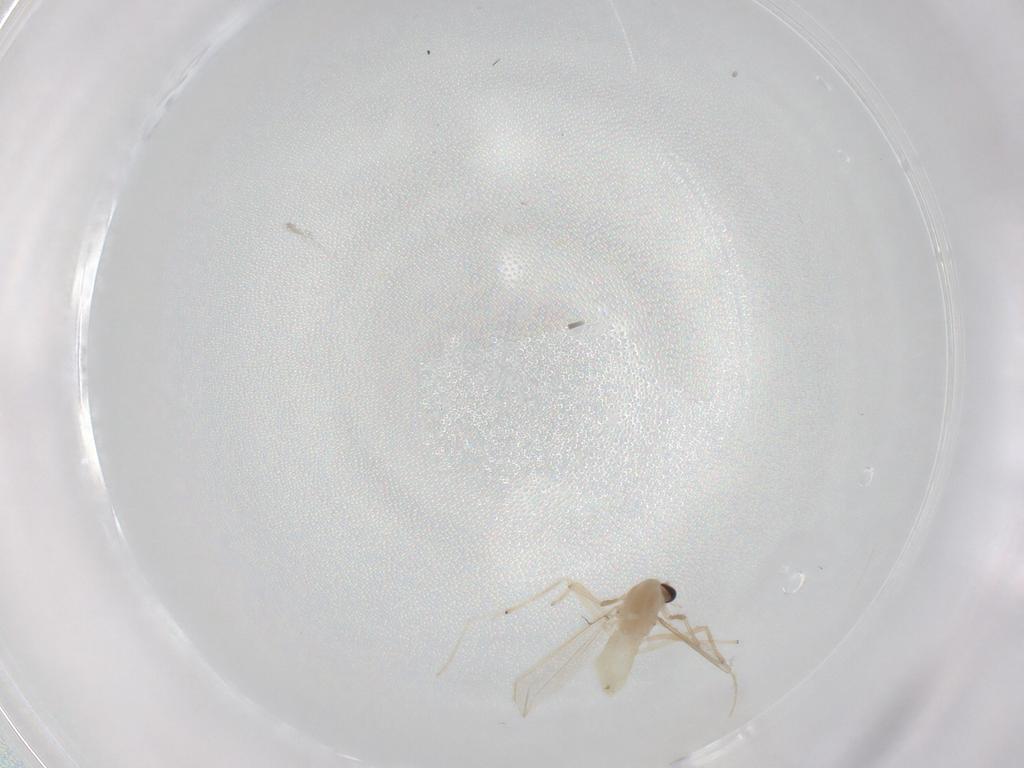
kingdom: Animalia
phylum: Arthropoda
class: Insecta
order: Diptera
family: Chironomidae
